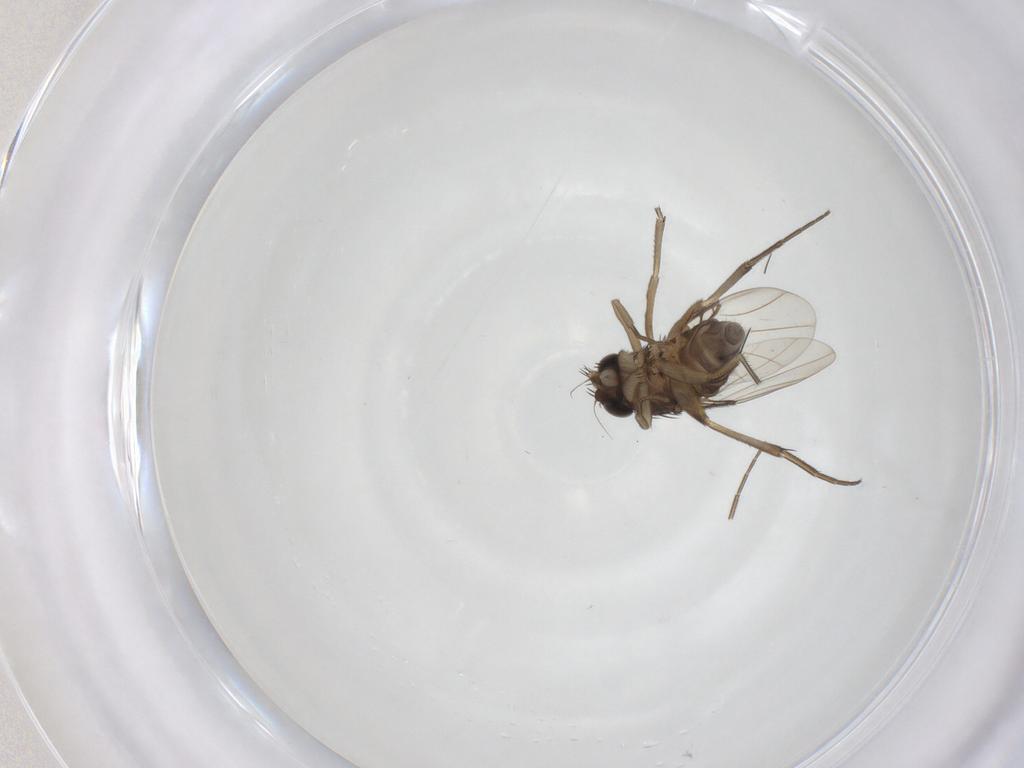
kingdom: Animalia
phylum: Arthropoda
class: Insecta
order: Diptera
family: Phoridae
